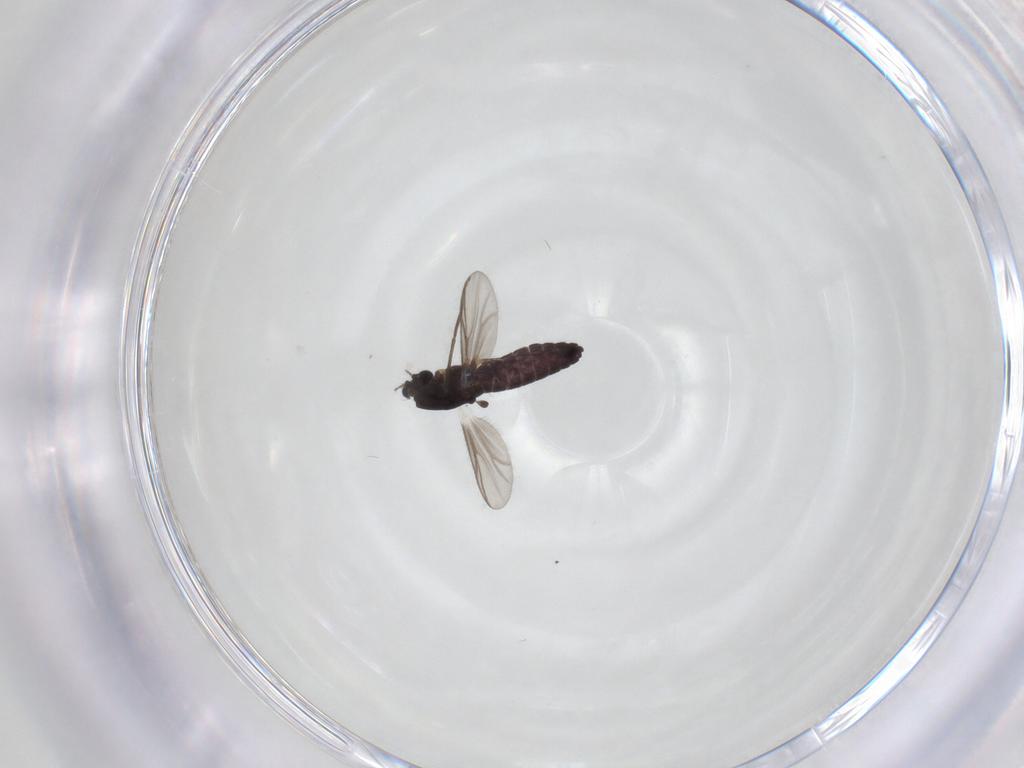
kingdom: Animalia
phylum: Arthropoda
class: Insecta
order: Diptera
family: Chironomidae
